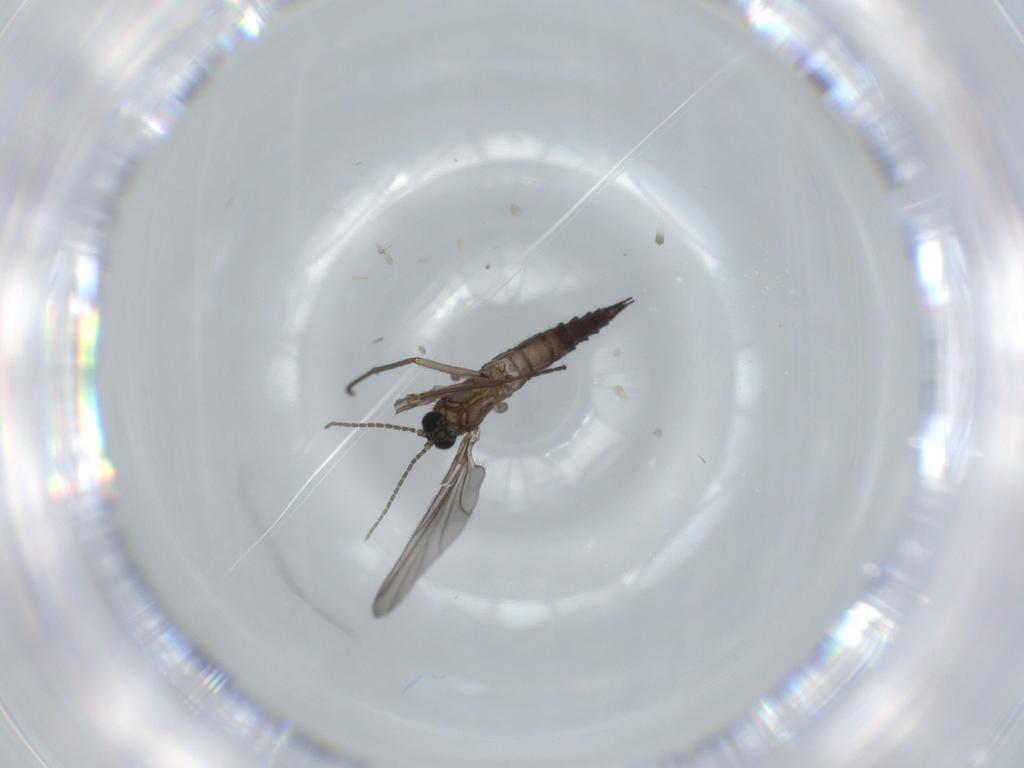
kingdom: Animalia
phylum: Arthropoda
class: Insecta
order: Diptera
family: Sciaridae
